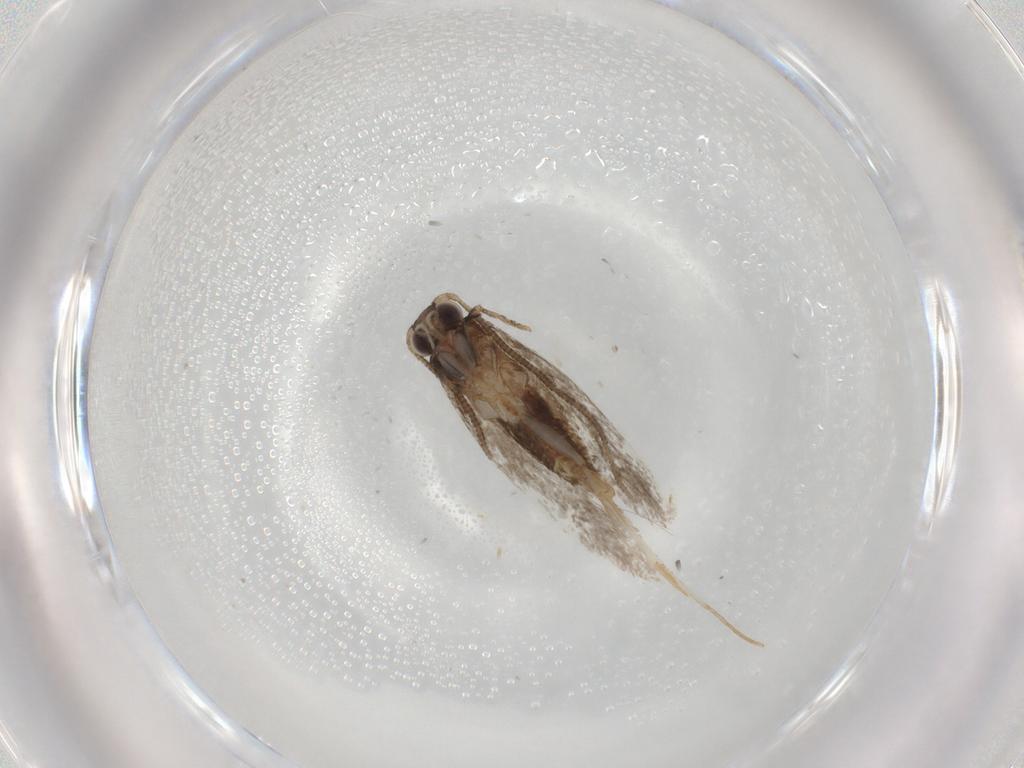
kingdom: Animalia
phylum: Arthropoda
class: Insecta
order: Lepidoptera
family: Tineidae
